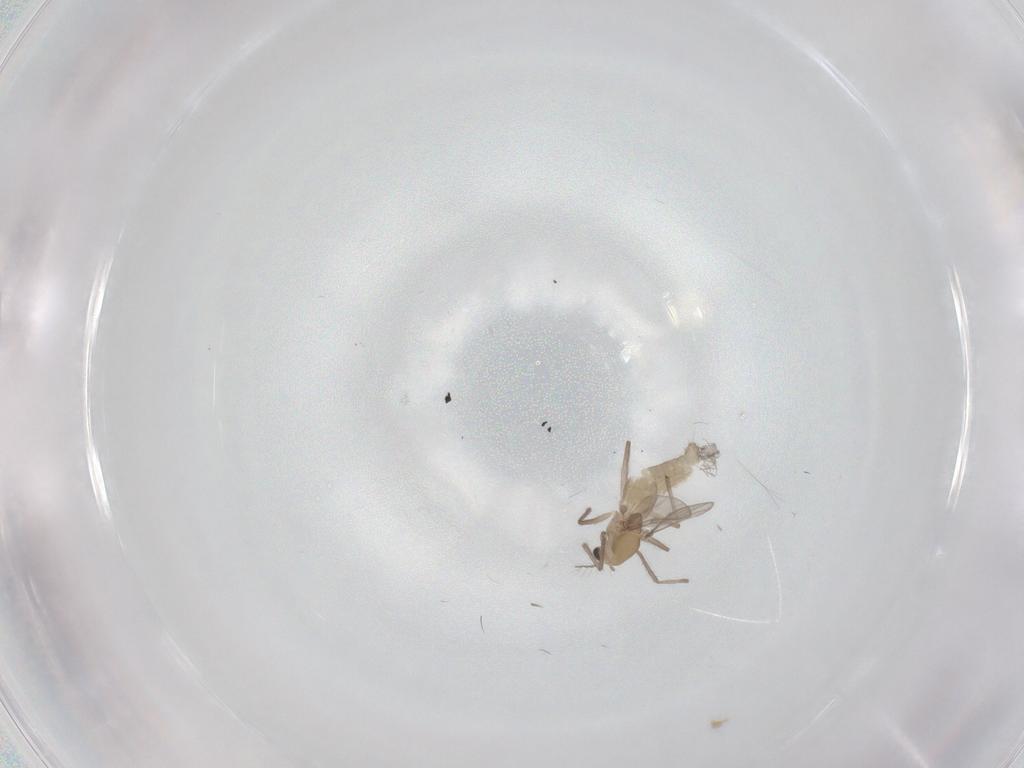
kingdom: Animalia
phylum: Arthropoda
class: Insecta
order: Diptera
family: Chironomidae
